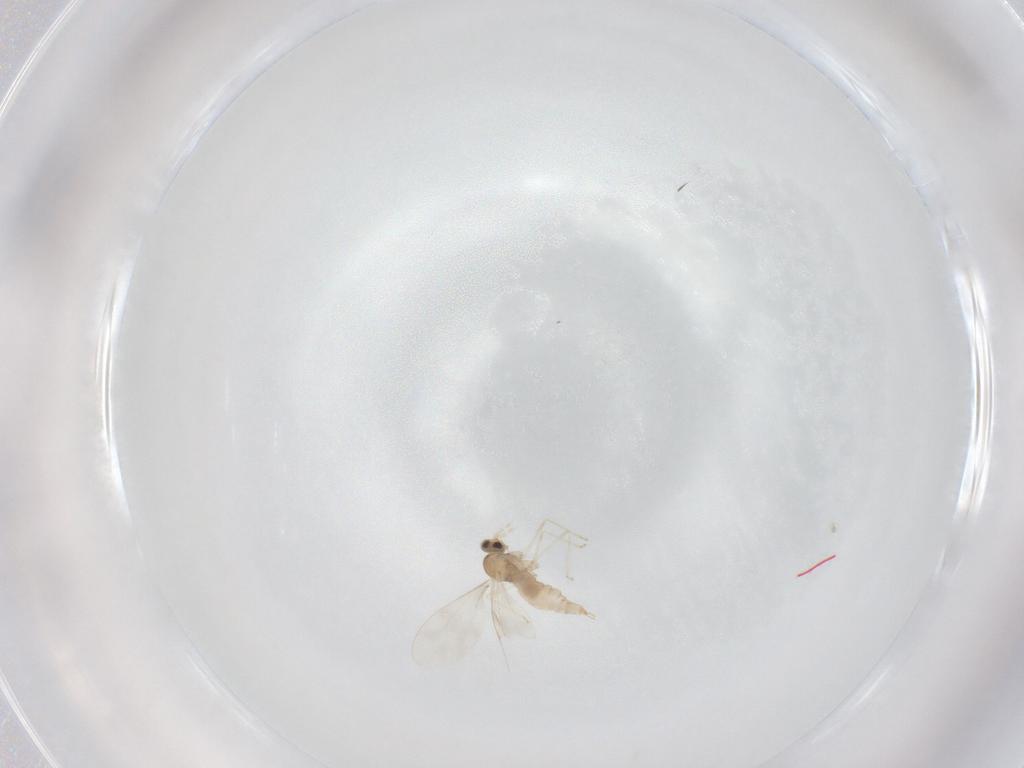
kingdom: Animalia
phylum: Arthropoda
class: Insecta
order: Diptera
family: Cecidomyiidae
